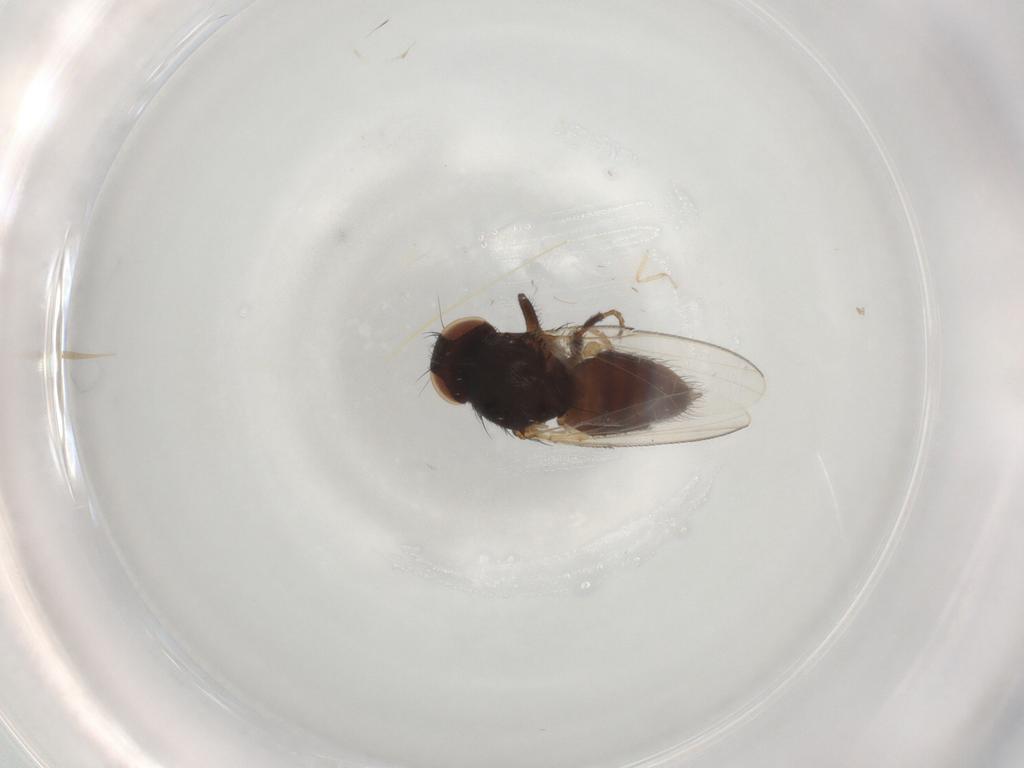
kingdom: Animalia
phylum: Arthropoda
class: Insecta
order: Diptera
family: Milichiidae
